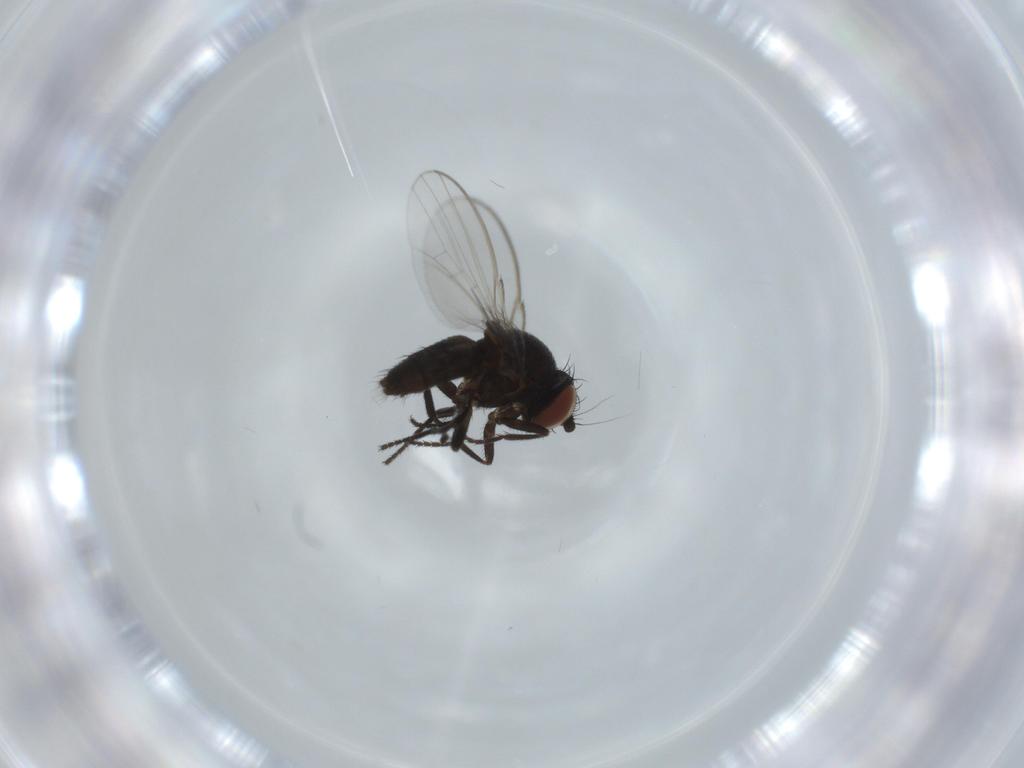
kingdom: Animalia
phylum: Arthropoda
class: Insecta
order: Diptera
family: Milichiidae
